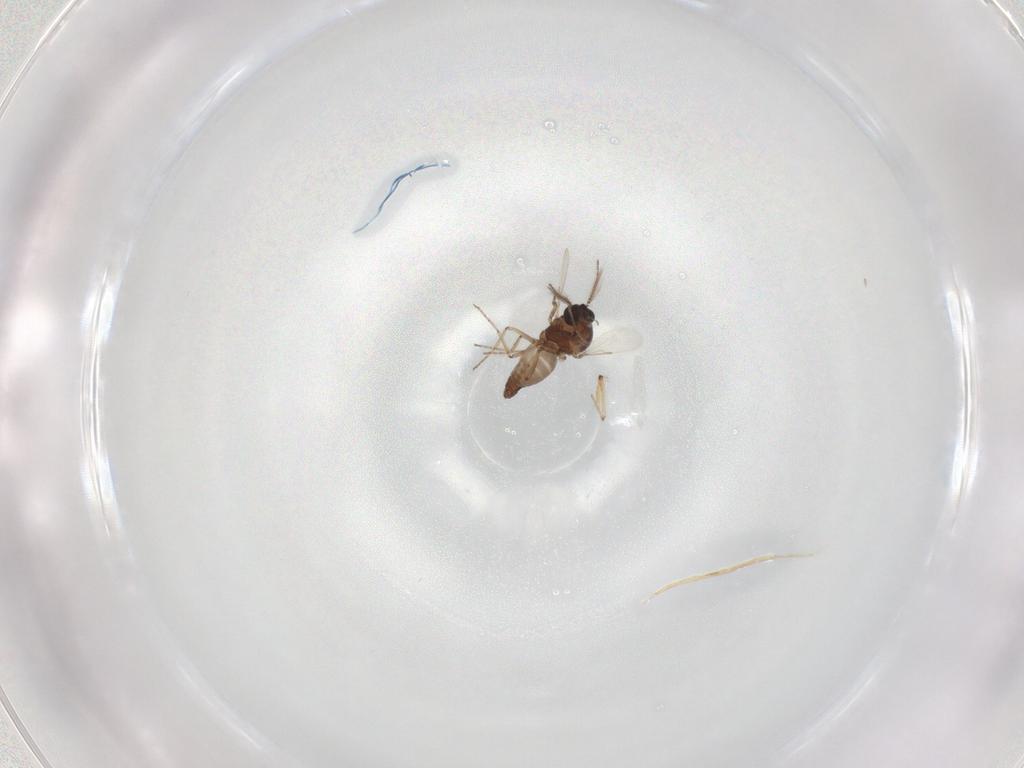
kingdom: Animalia
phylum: Arthropoda
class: Insecta
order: Diptera
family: Ceratopogonidae
